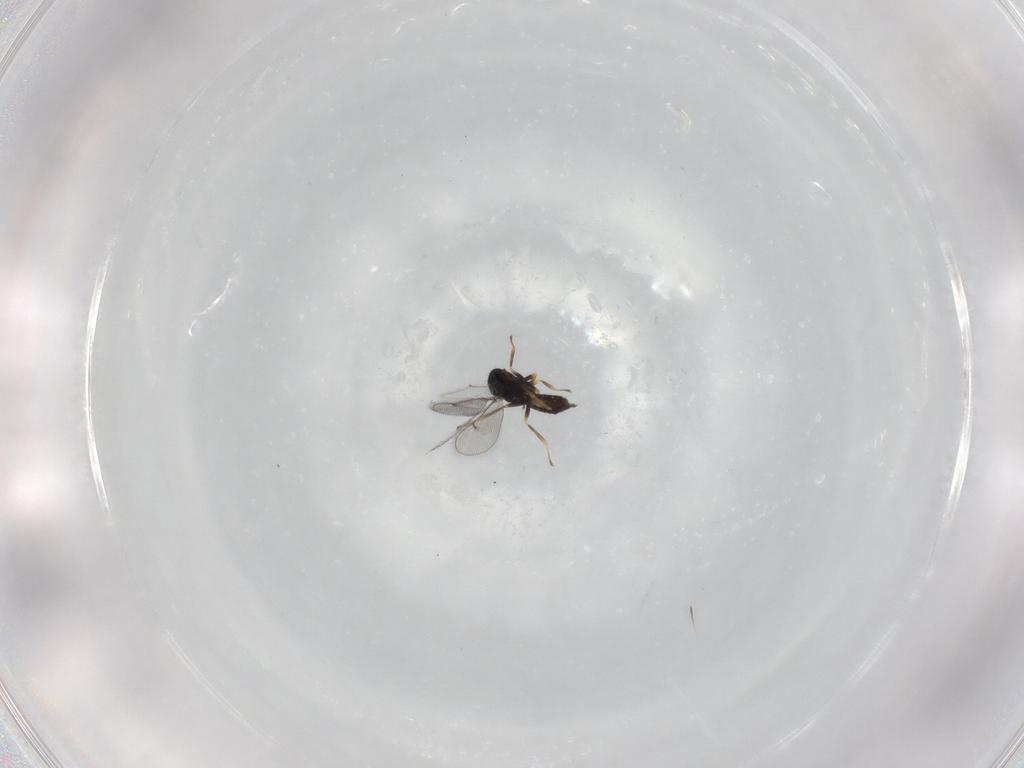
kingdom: Animalia
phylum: Arthropoda
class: Insecta
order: Hymenoptera
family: Eulophidae
